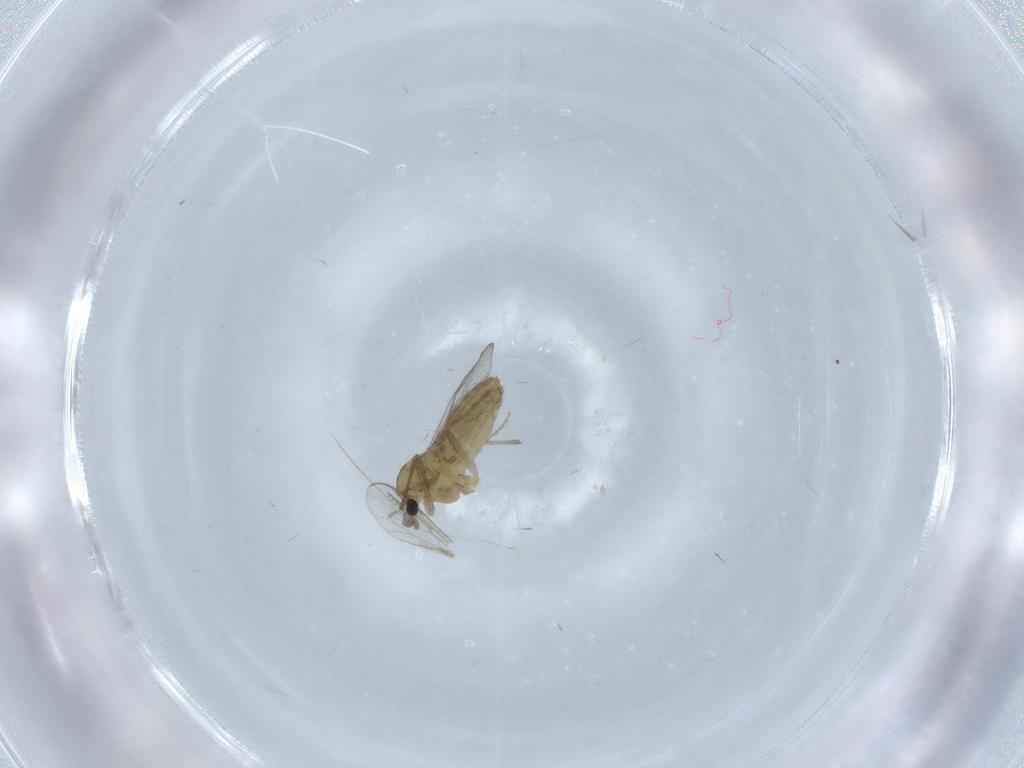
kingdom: Animalia
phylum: Arthropoda
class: Insecta
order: Diptera
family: Chironomidae
